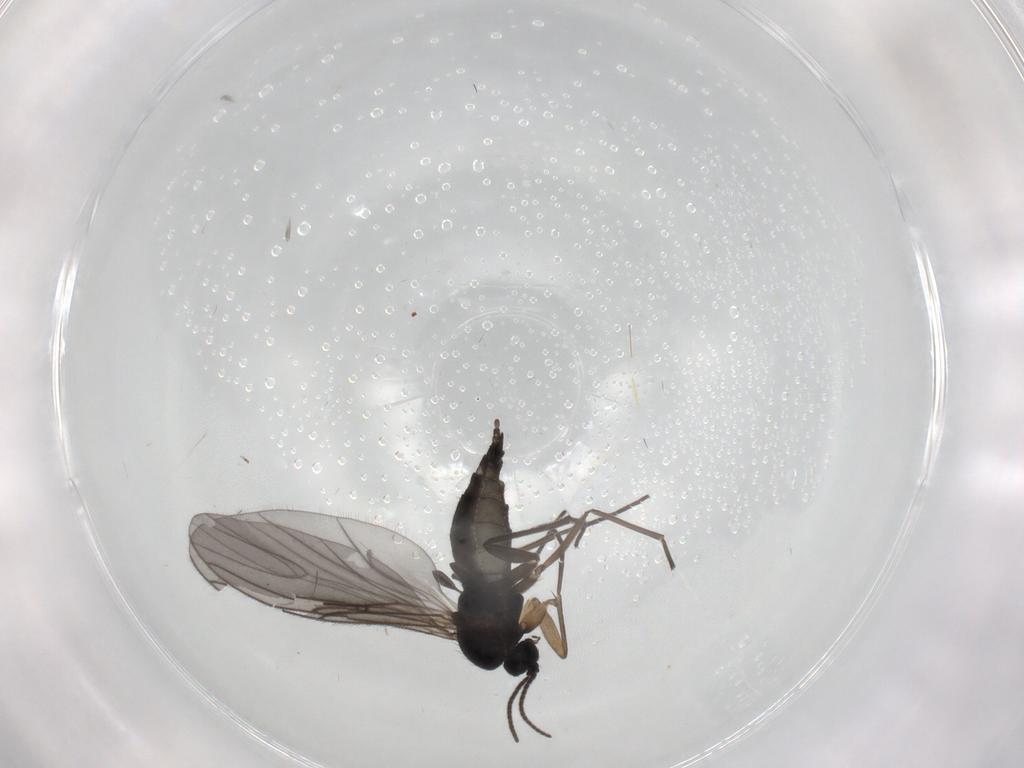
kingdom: Animalia
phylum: Arthropoda
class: Insecta
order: Diptera
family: Sciaridae
